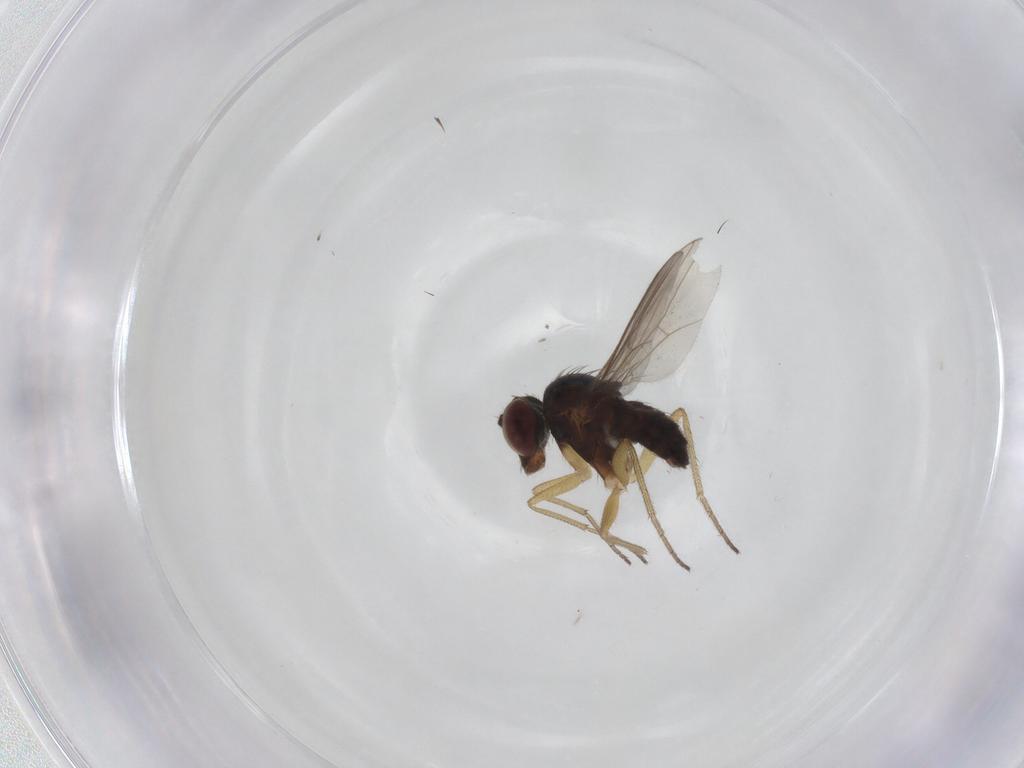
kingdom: Animalia
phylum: Arthropoda
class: Insecta
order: Diptera
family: Dolichopodidae
